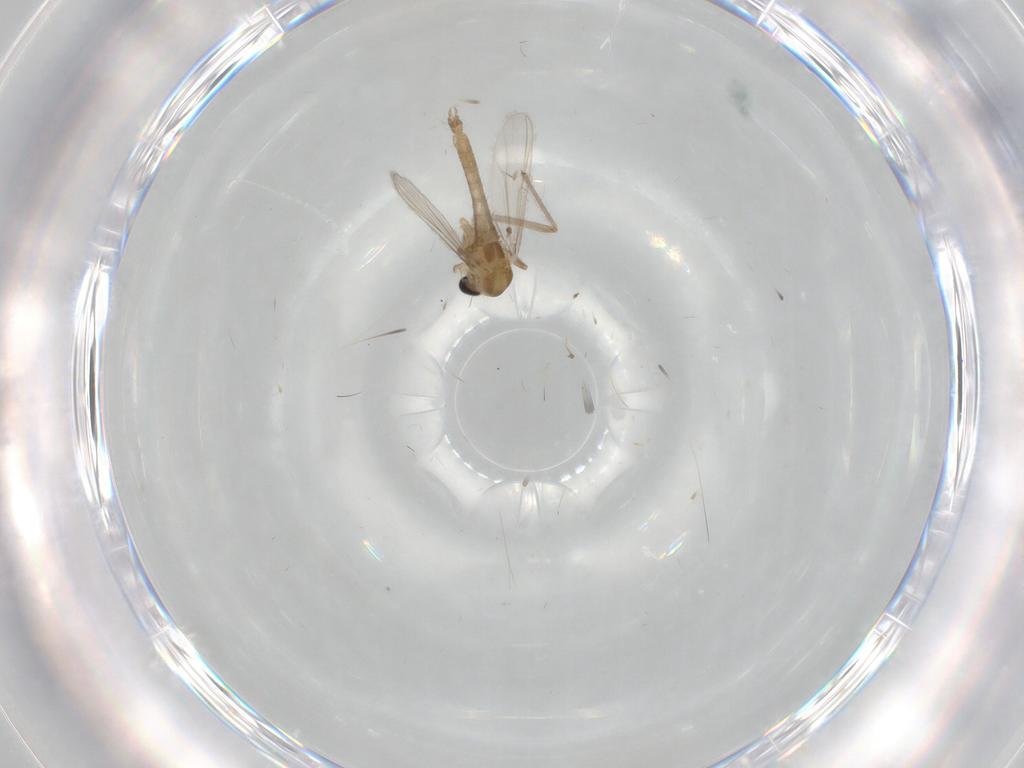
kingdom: Animalia
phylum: Arthropoda
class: Insecta
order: Diptera
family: Chironomidae
